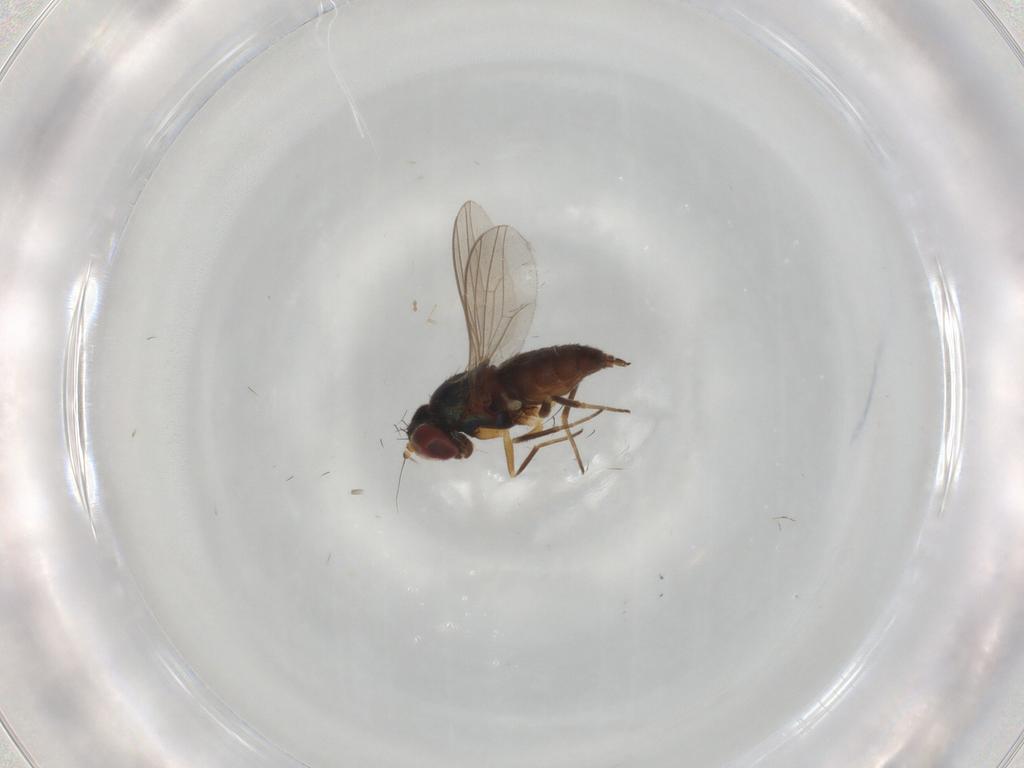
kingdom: Animalia
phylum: Arthropoda
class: Insecta
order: Diptera
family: Dolichopodidae
